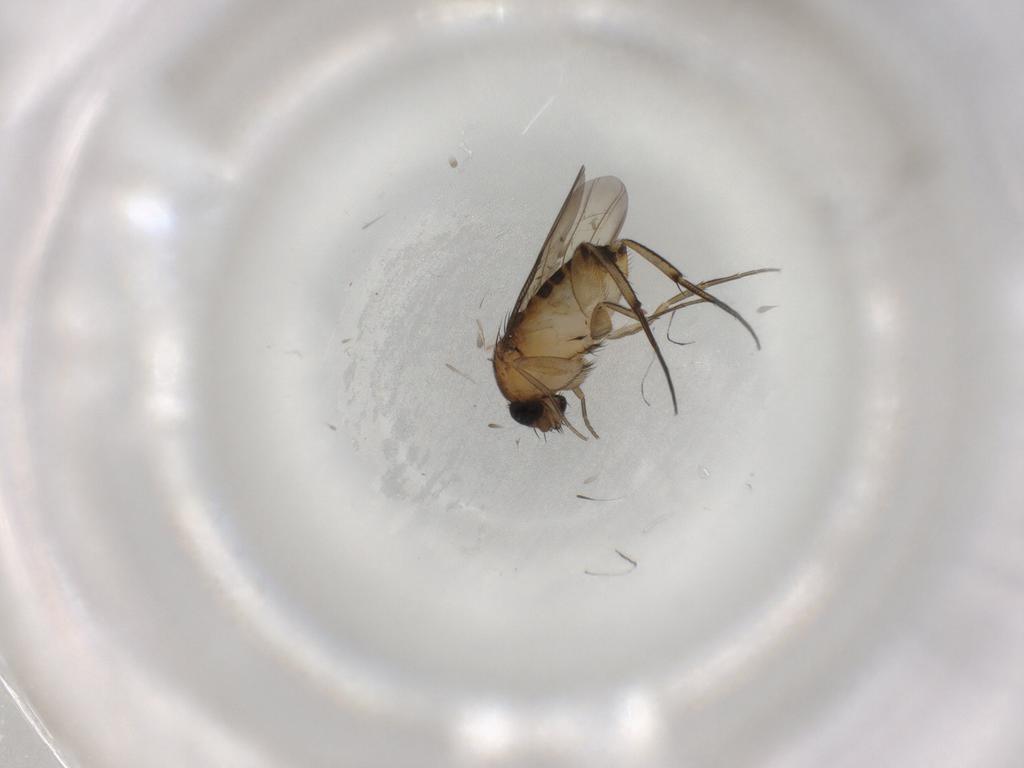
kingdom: Animalia
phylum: Arthropoda
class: Insecta
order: Diptera
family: Phoridae
